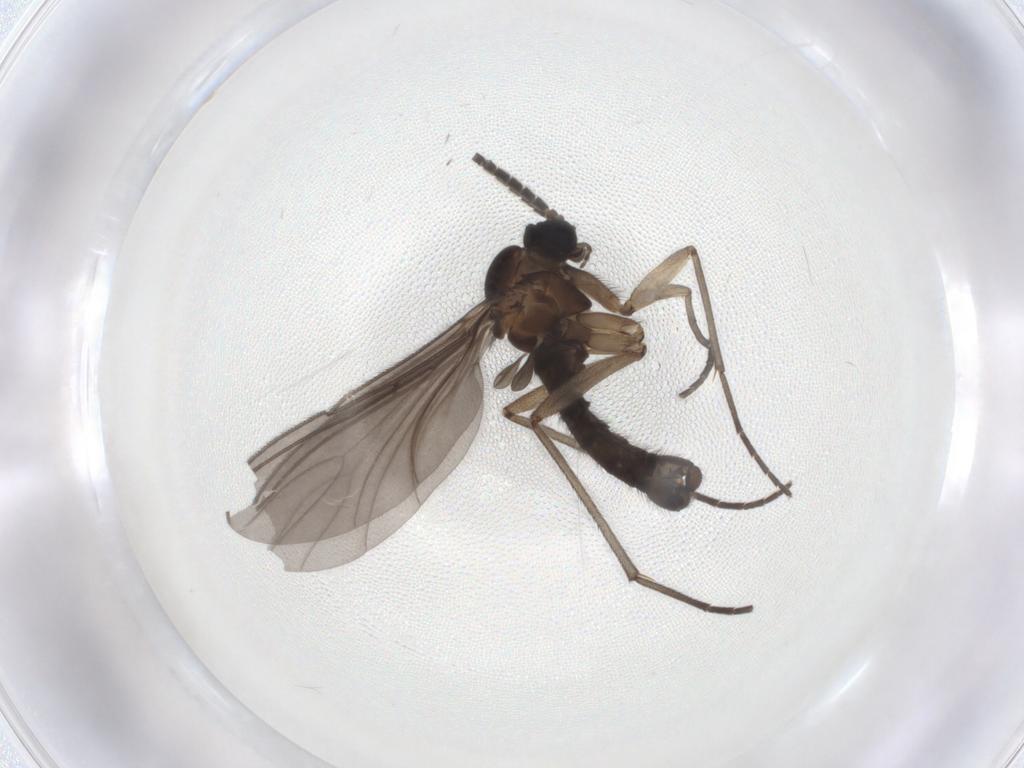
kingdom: Animalia
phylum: Arthropoda
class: Insecta
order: Diptera
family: Sciaridae
